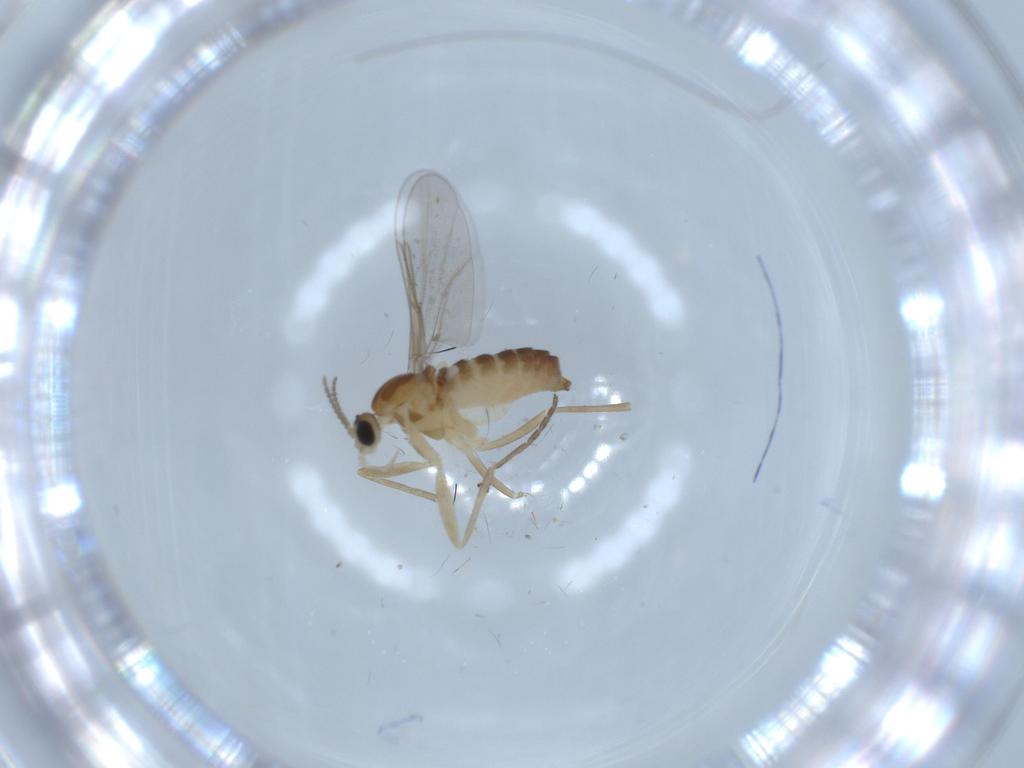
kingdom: Animalia
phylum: Arthropoda
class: Insecta
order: Diptera
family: Cecidomyiidae
